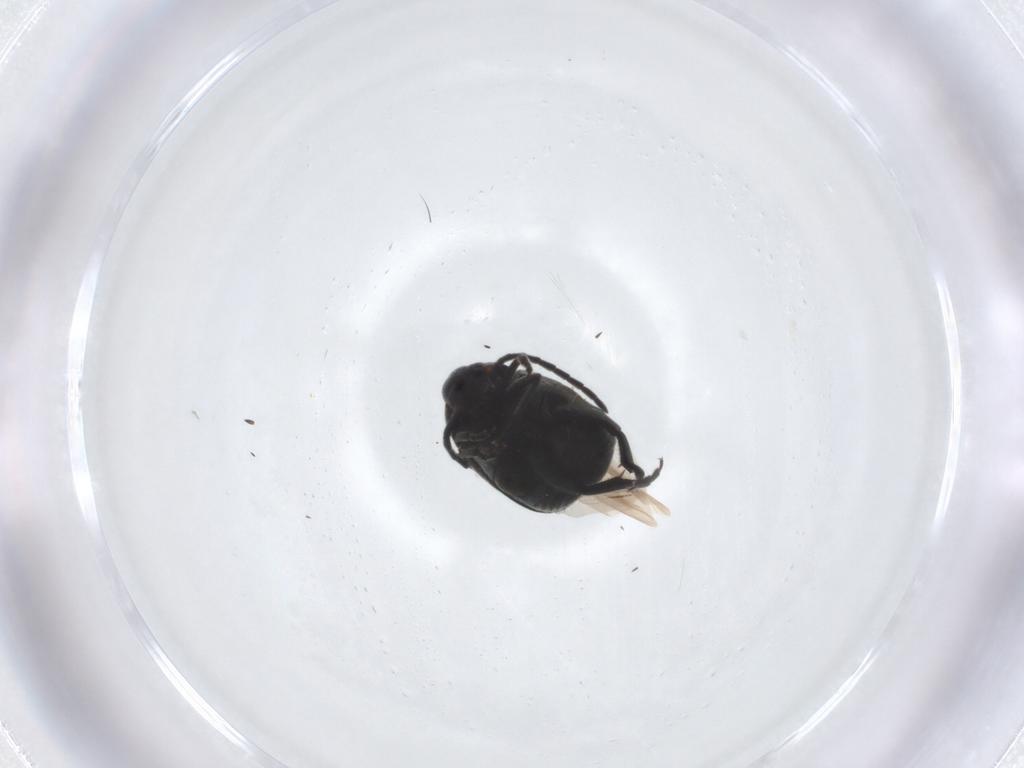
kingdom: Animalia
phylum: Arthropoda
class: Insecta
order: Coleoptera
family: Chrysomelidae
